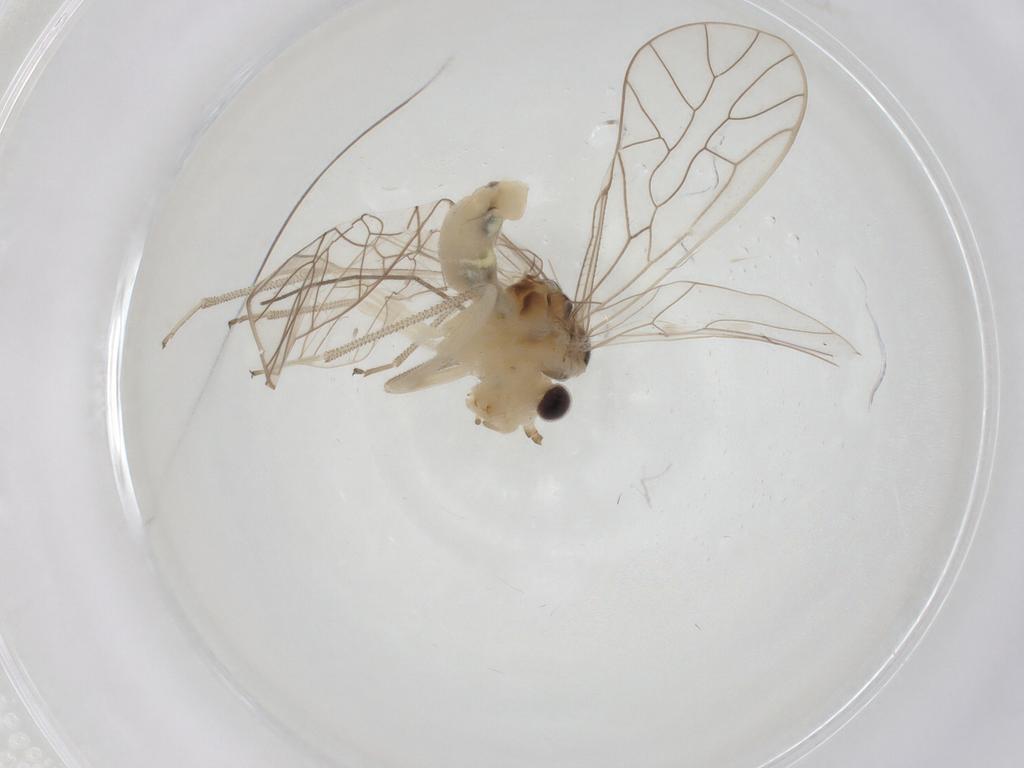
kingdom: Animalia
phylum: Arthropoda
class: Insecta
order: Psocodea
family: Stenopsocidae
